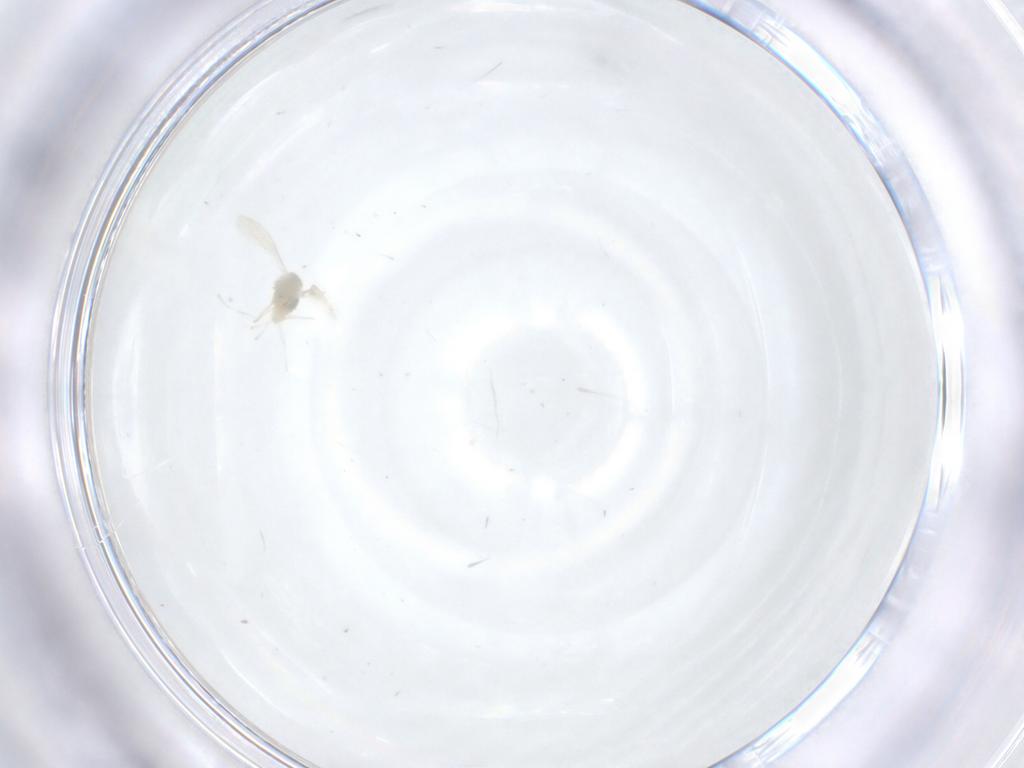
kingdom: Animalia
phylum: Arthropoda
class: Insecta
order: Diptera
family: Cecidomyiidae
